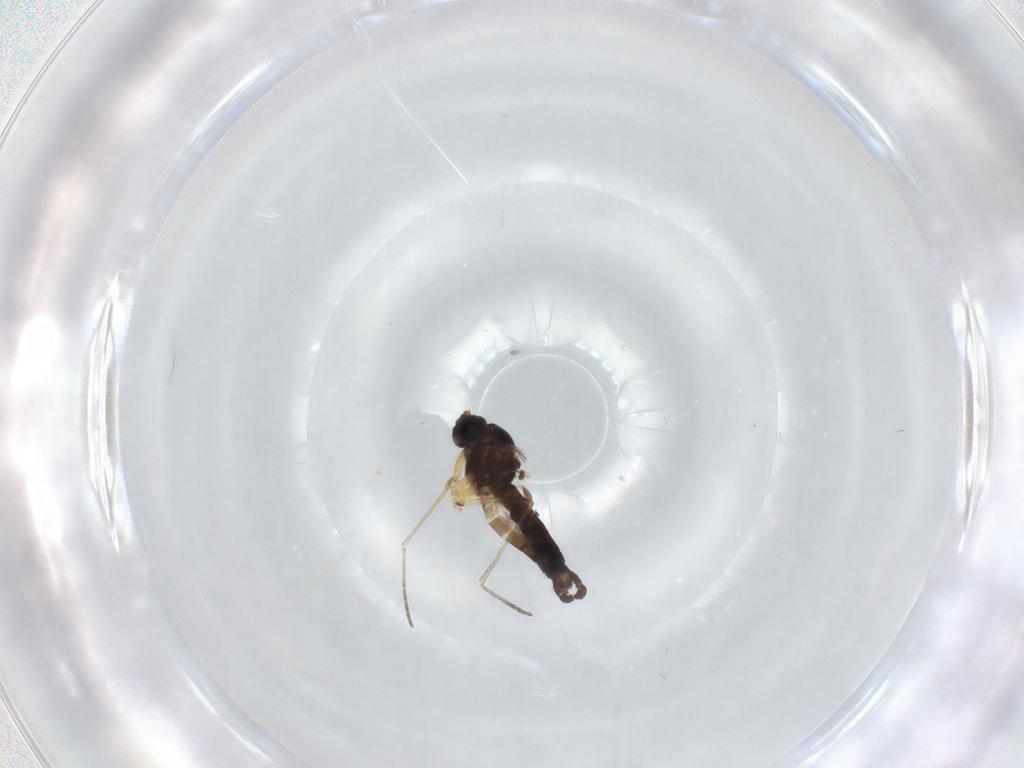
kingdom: Animalia
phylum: Arthropoda
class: Insecta
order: Diptera
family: Sciaridae
